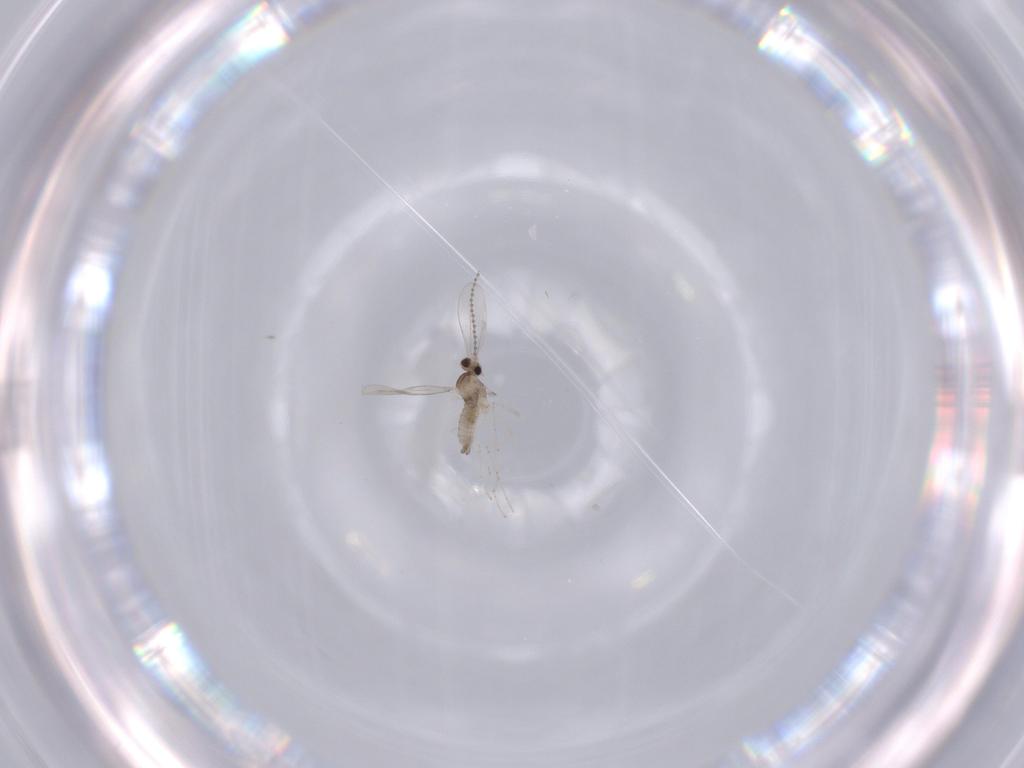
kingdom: Animalia
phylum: Arthropoda
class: Insecta
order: Diptera
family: Cecidomyiidae
